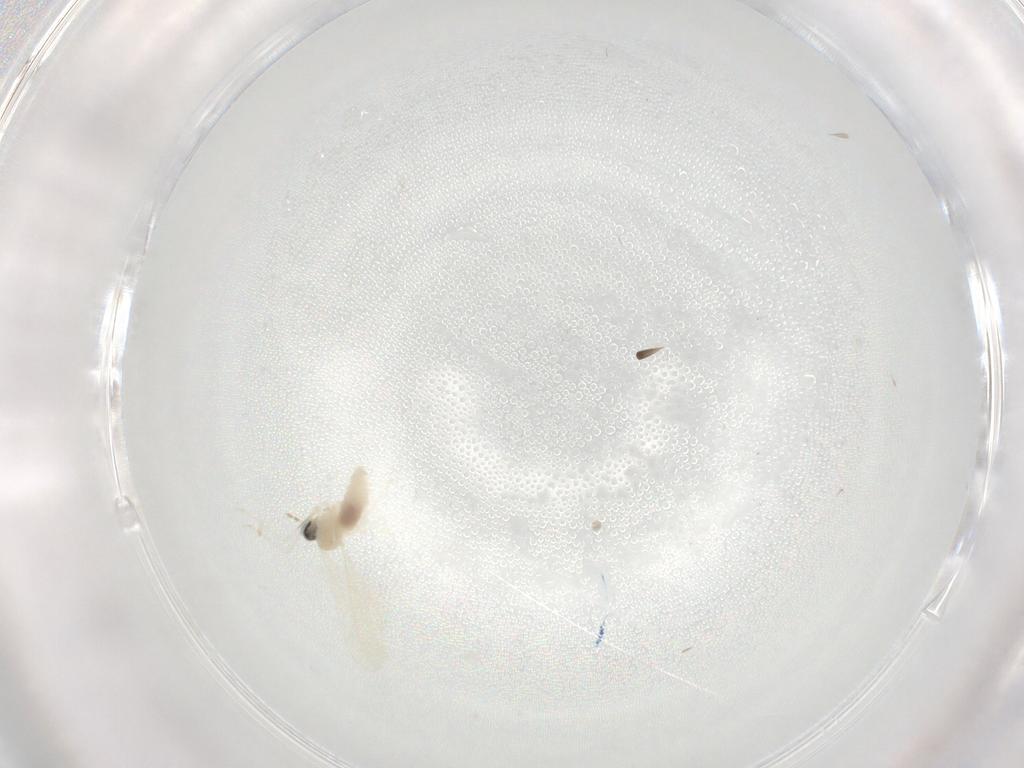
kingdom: Animalia
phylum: Arthropoda
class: Insecta
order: Diptera
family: Cecidomyiidae
